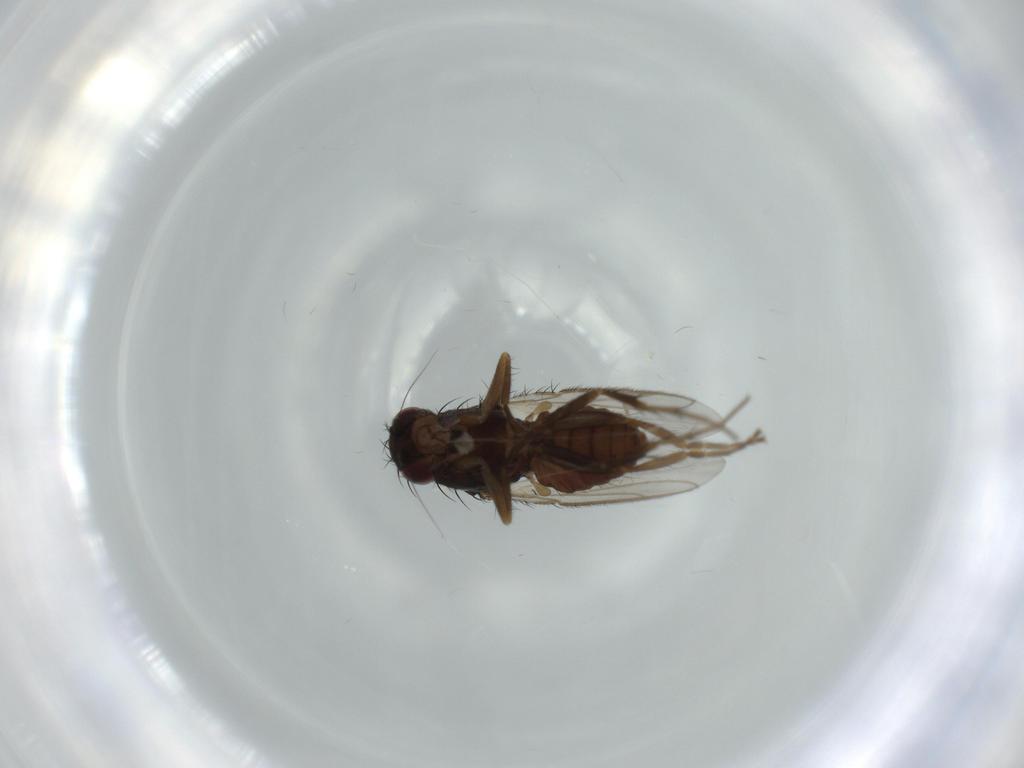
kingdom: Animalia
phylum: Arthropoda
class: Insecta
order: Diptera
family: Sphaeroceridae
